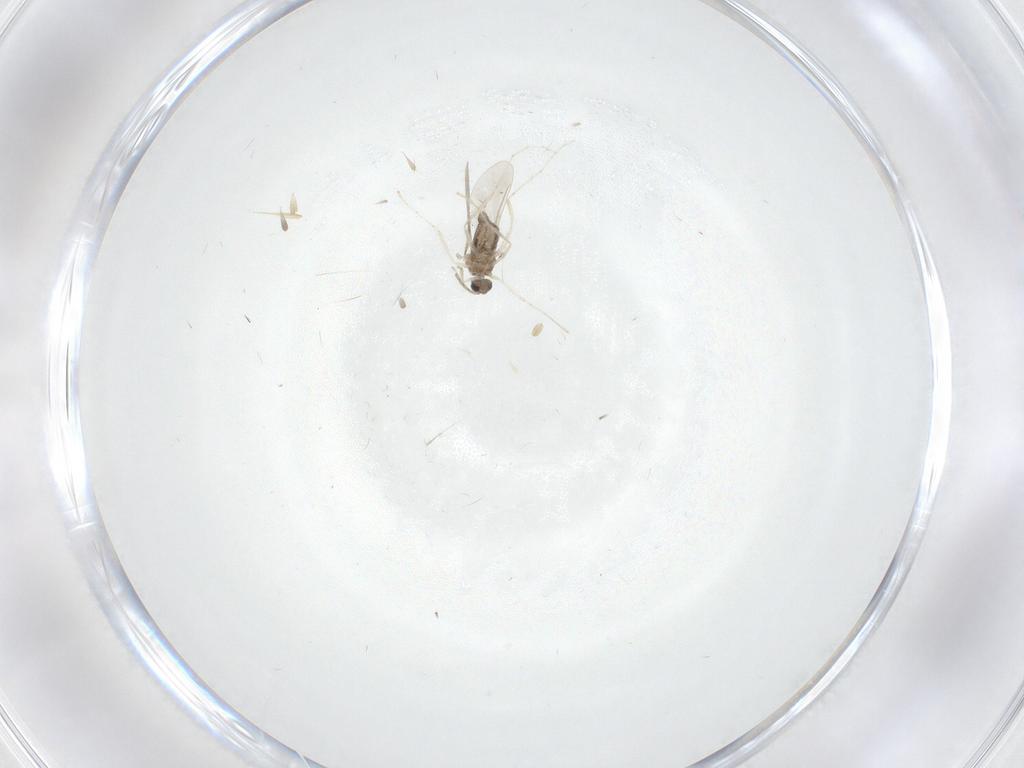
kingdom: Animalia
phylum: Arthropoda
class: Insecta
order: Diptera
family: Cecidomyiidae
